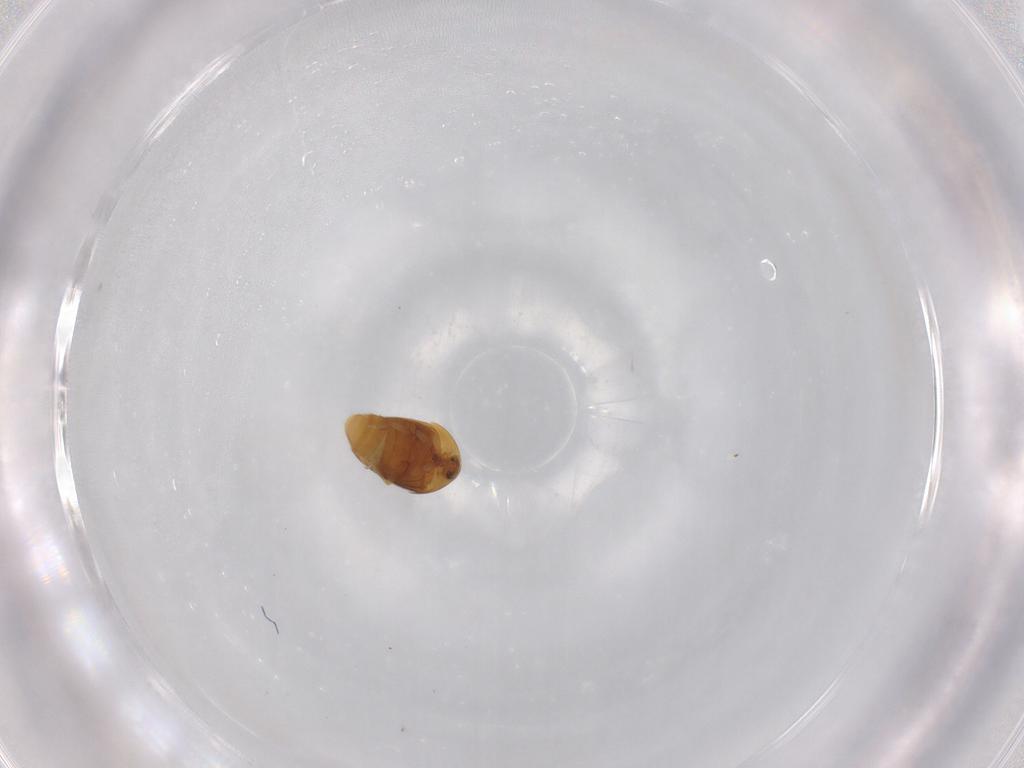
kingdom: Animalia
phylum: Arthropoda
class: Insecta
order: Coleoptera
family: Corylophidae
